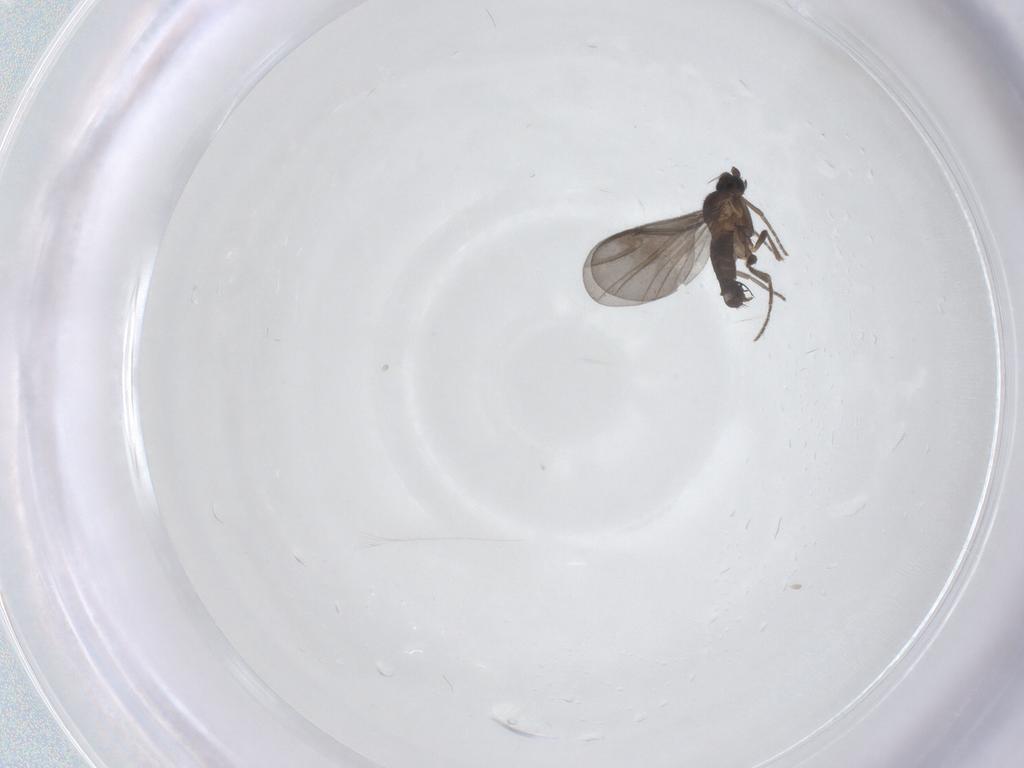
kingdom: Animalia
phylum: Arthropoda
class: Insecta
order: Diptera
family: Phoridae
